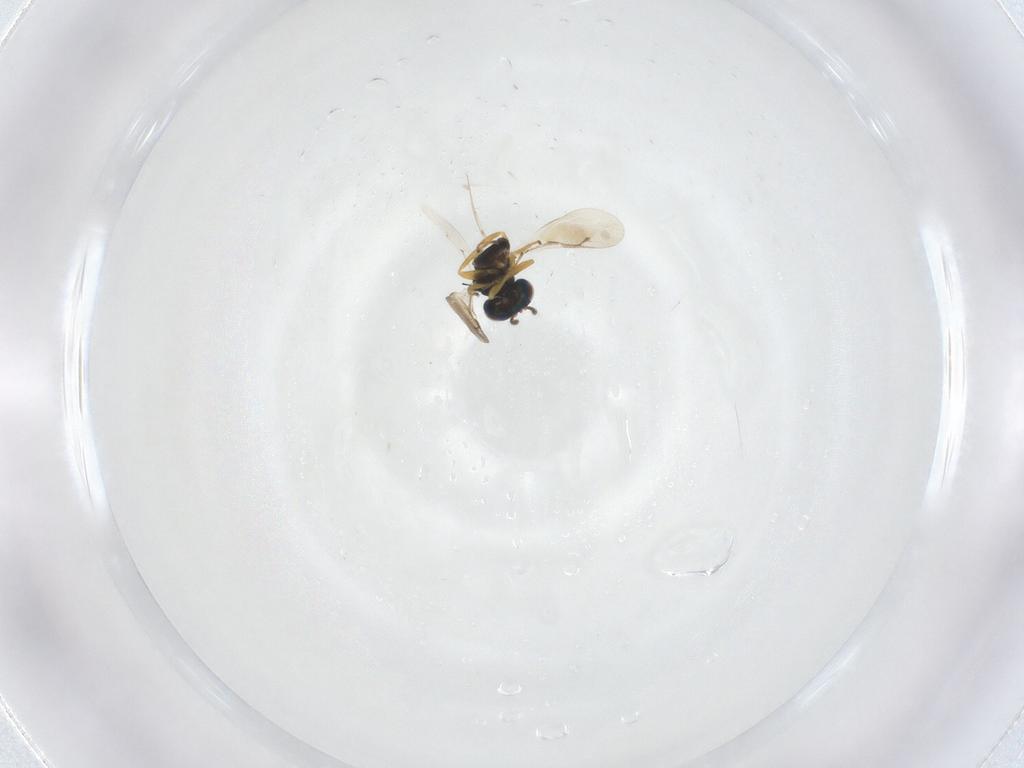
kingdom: Animalia
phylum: Arthropoda
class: Insecta
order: Hymenoptera
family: Pteromalidae
